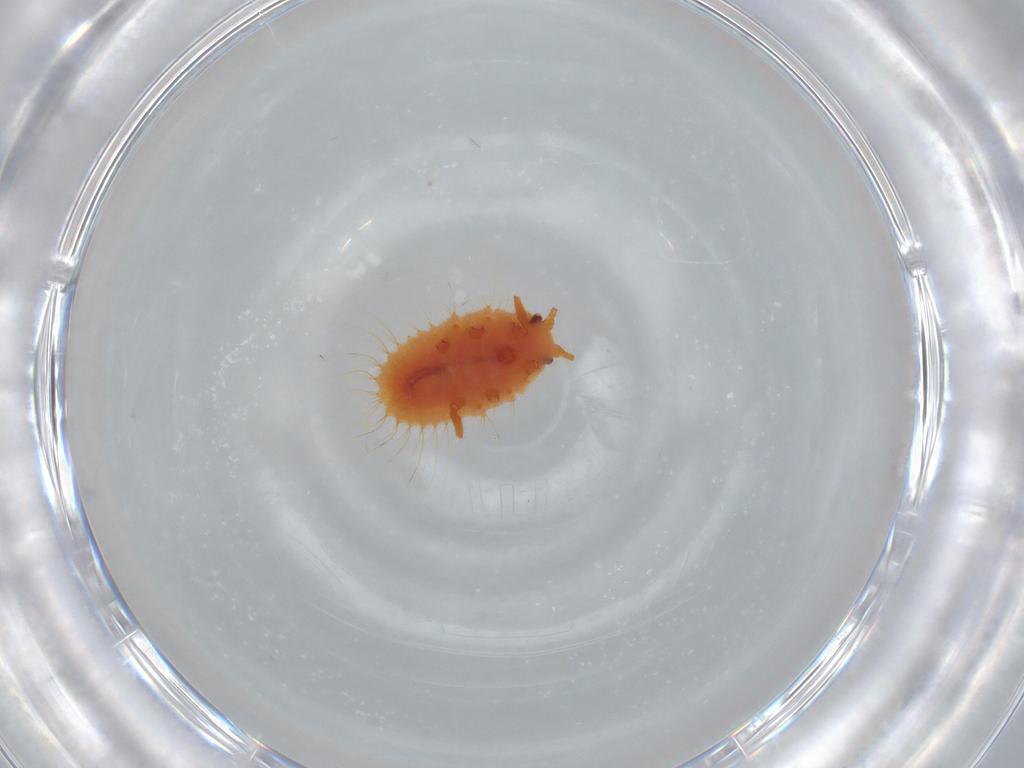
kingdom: Animalia
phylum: Arthropoda
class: Insecta
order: Hemiptera
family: Coccoidea_incertae_sedis
